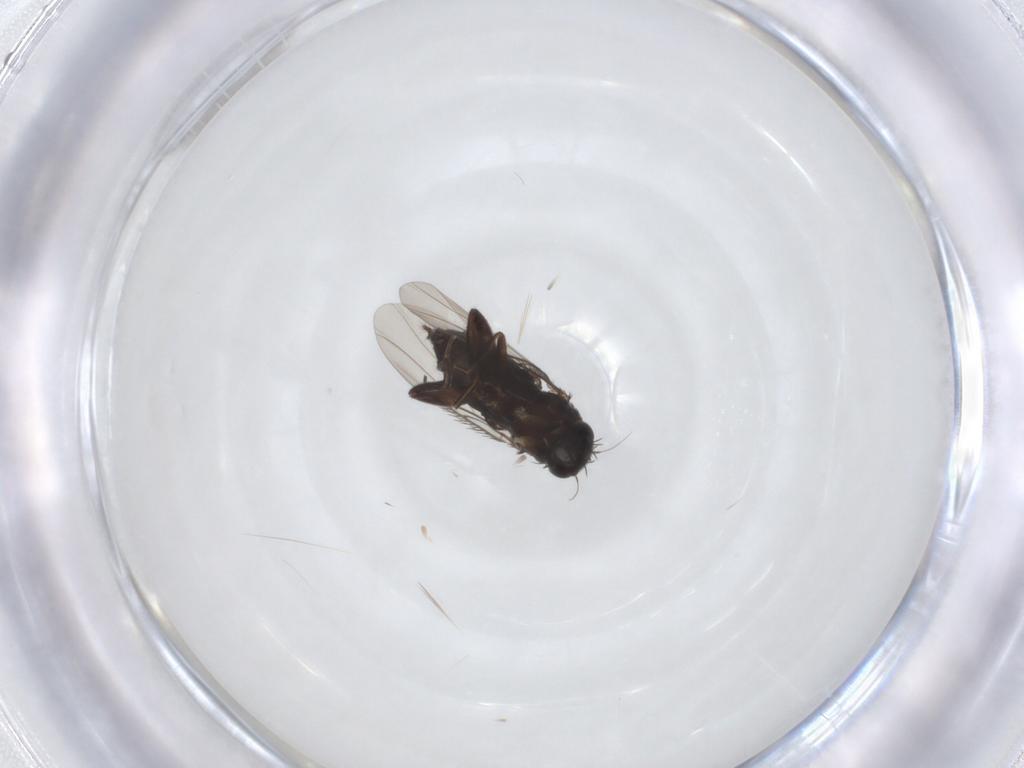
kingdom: Animalia
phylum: Arthropoda
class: Insecta
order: Diptera
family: Phoridae
